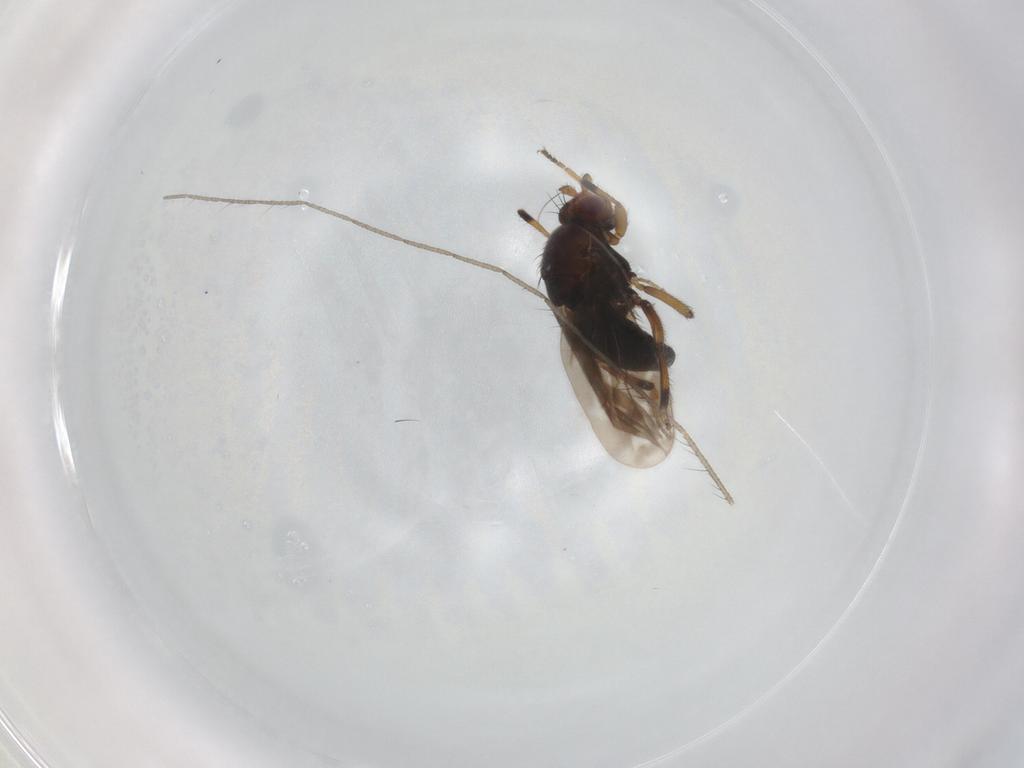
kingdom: Animalia
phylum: Arthropoda
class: Insecta
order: Diptera
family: Limoniidae
